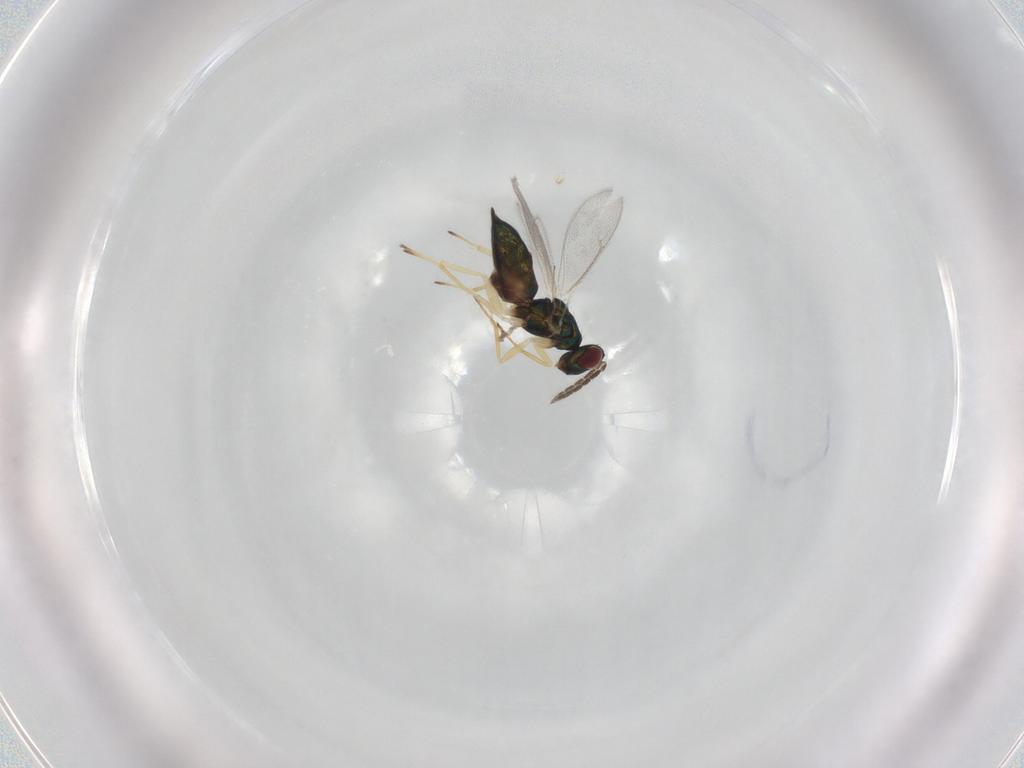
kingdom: Animalia
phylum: Arthropoda
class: Insecta
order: Hymenoptera
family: Eulophidae
